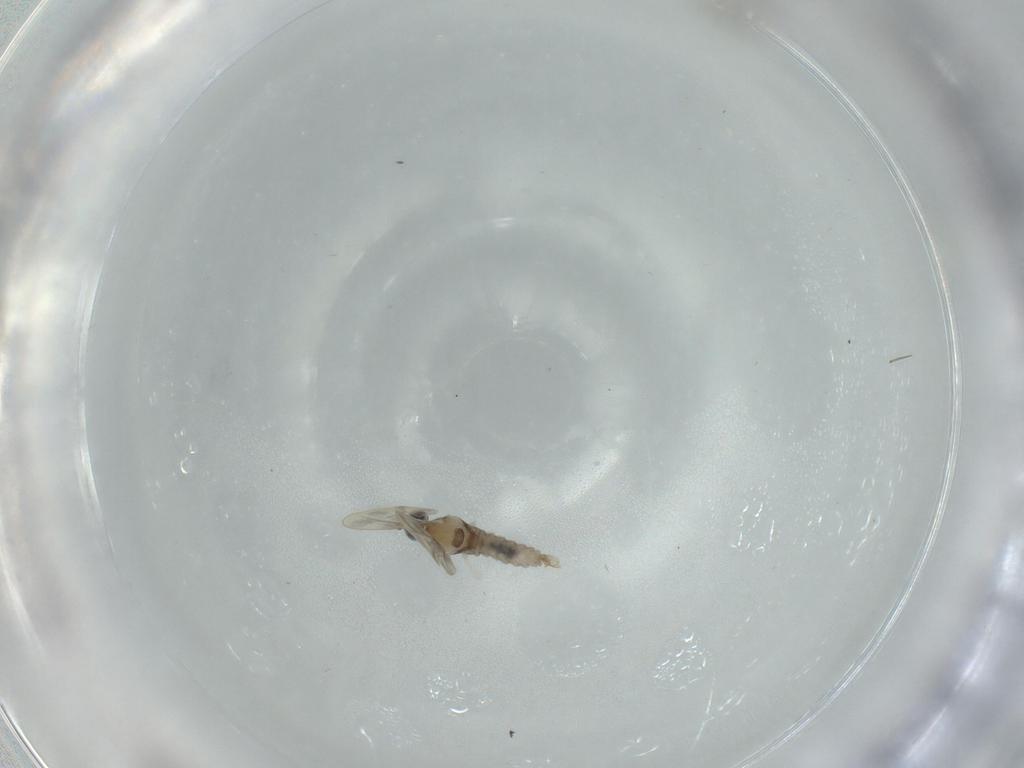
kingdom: Animalia
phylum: Arthropoda
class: Insecta
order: Diptera
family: Cecidomyiidae
